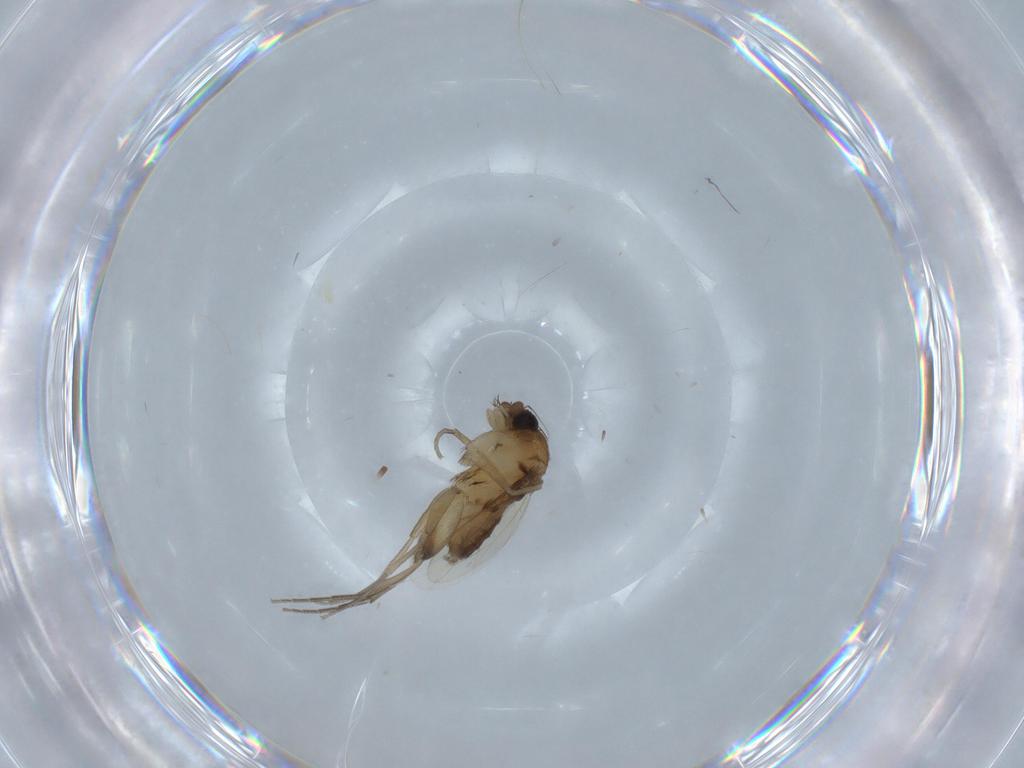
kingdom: Animalia
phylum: Arthropoda
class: Insecta
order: Diptera
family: Phoridae
